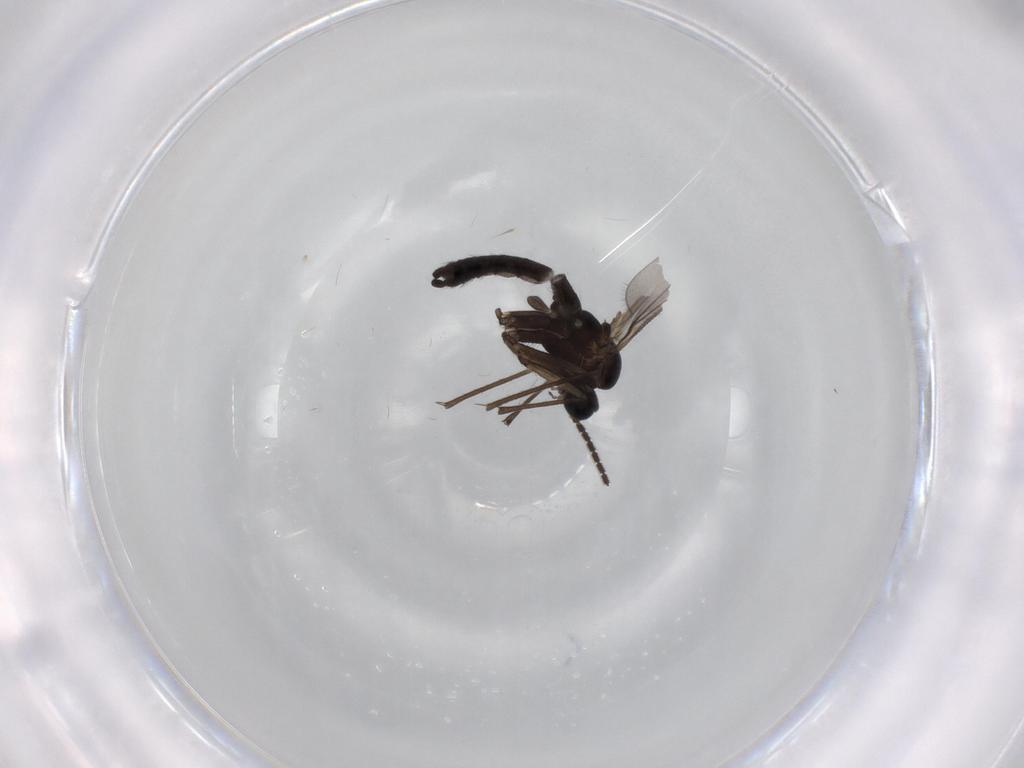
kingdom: Animalia
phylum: Arthropoda
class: Insecta
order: Diptera
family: Sciaridae
